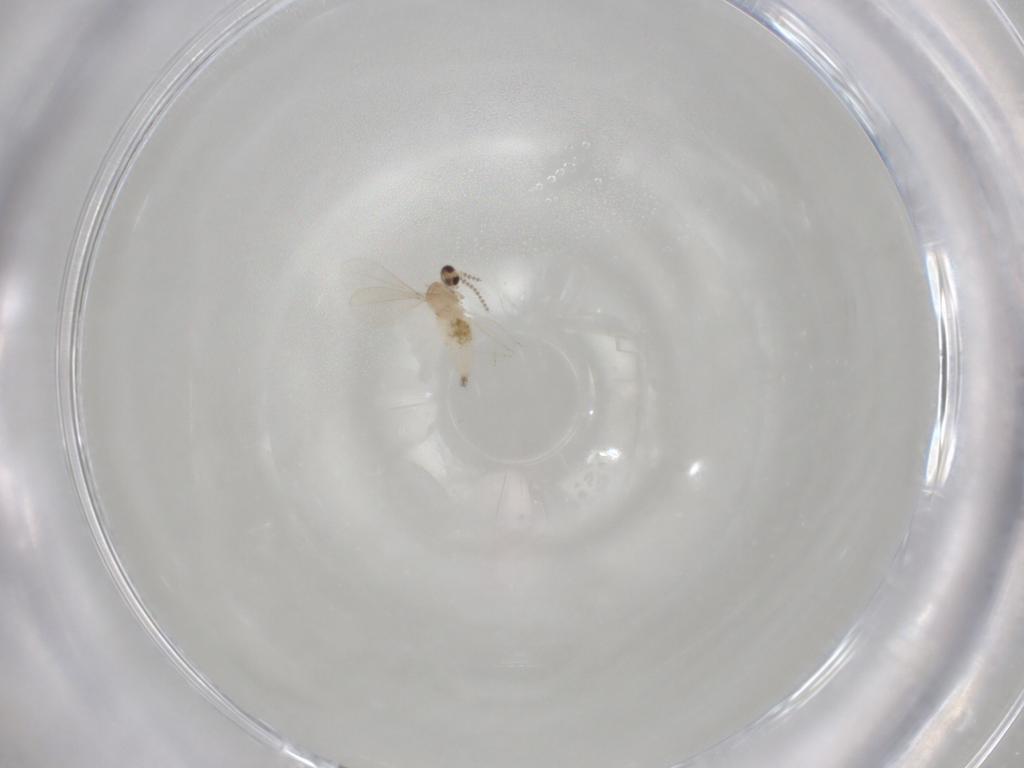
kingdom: Animalia
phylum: Arthropoda
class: Insecta
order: Diptera
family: Cecidomyiidae
